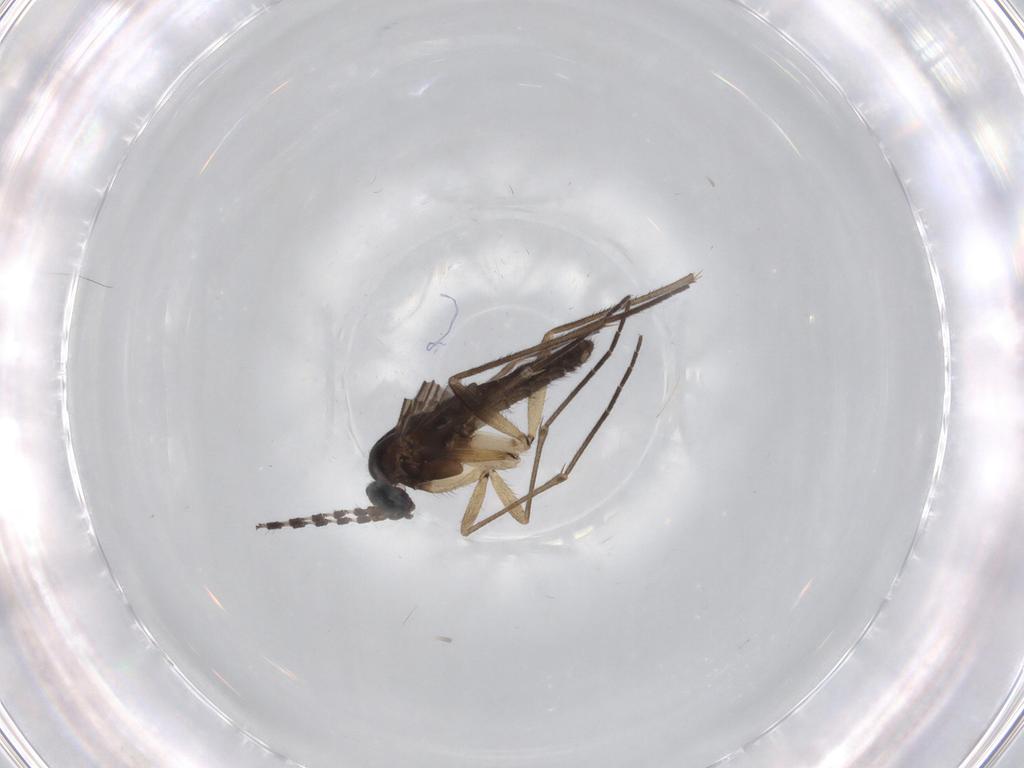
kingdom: Animalia
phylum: Arthropoda
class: Insecta
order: Diptera
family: Sciaridae
